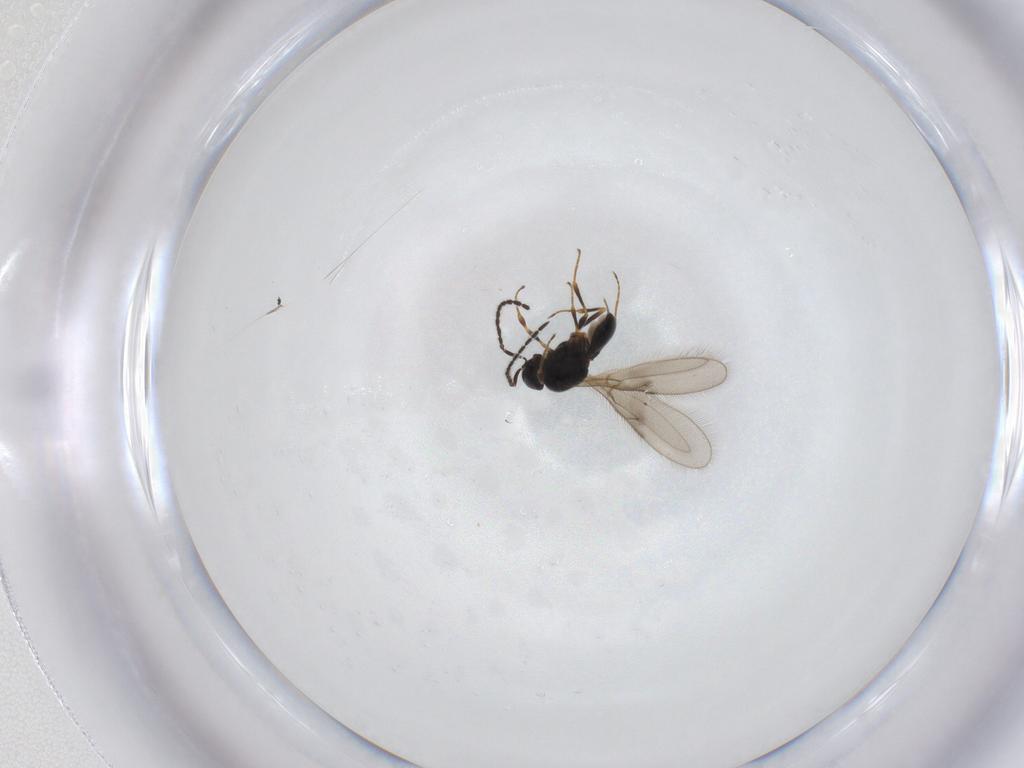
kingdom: Animalia
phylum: Arthropoda
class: Insecta
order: Hymenoptera
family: Scelionidae
